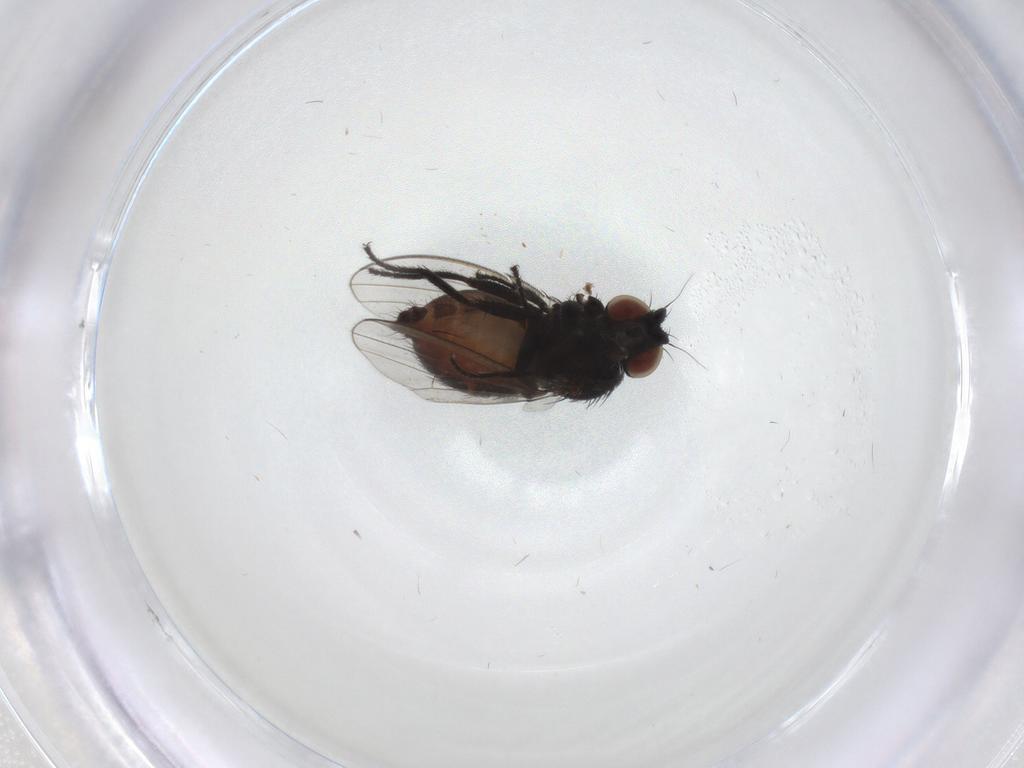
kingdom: Animalia
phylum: Arthropoda
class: Insecta
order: Diptera
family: Milichiidae
